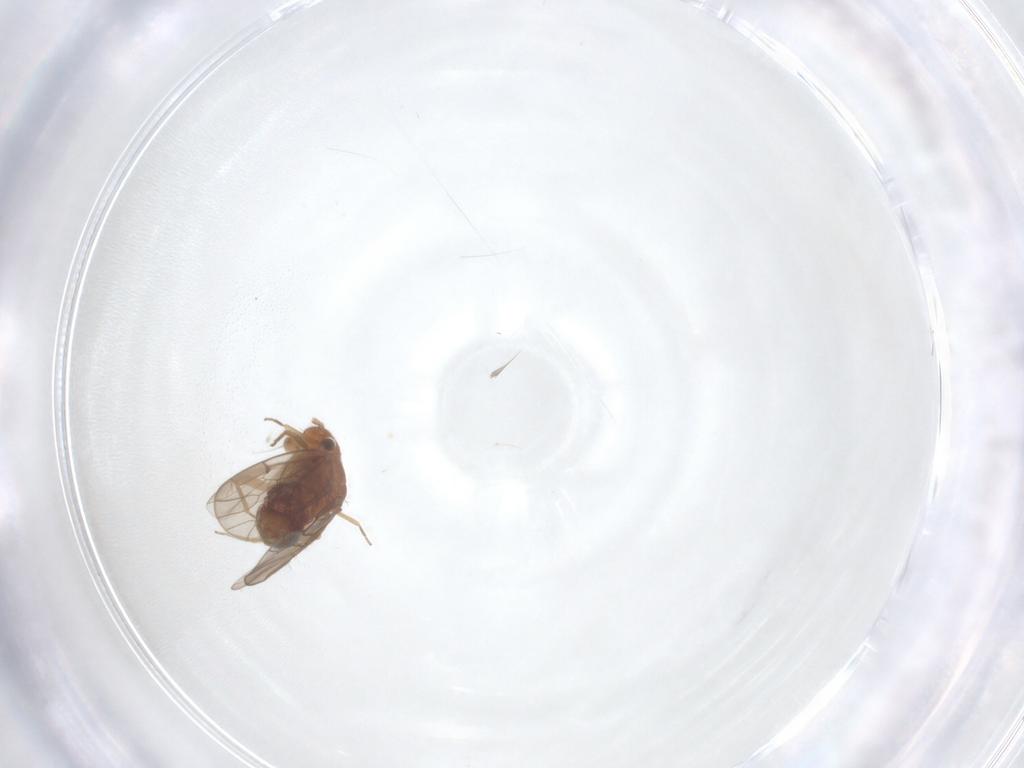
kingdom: Animalia
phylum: Arthropoda
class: Insecta
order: Psocodea
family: Ectopsocidae
